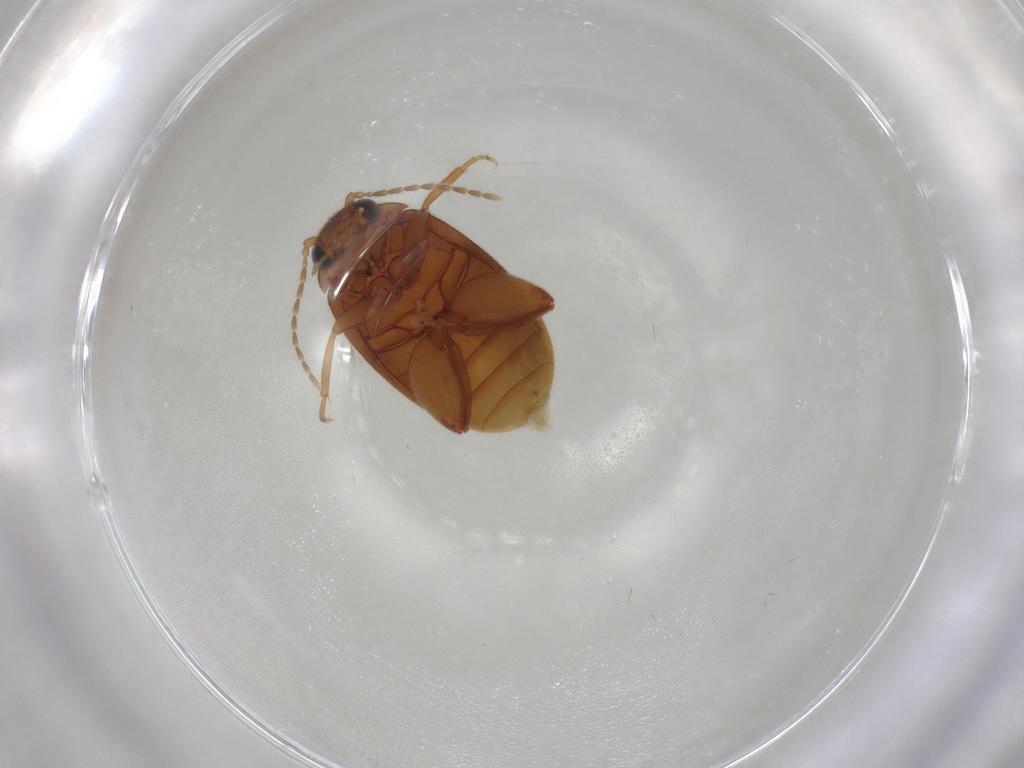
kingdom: Animalia
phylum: Arthropoda
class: Insecta
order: Coleoptera
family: Scirtidae
